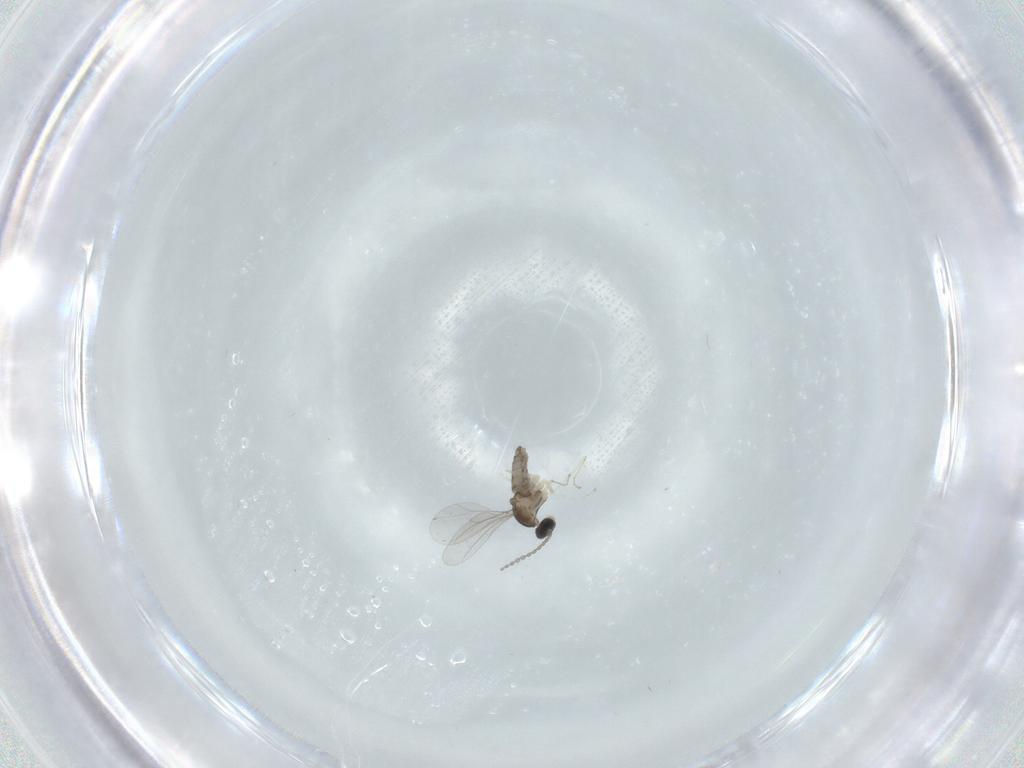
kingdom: Animalia
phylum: Arthropoda
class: Insecta
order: Diptera
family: Cecidomyiidae
